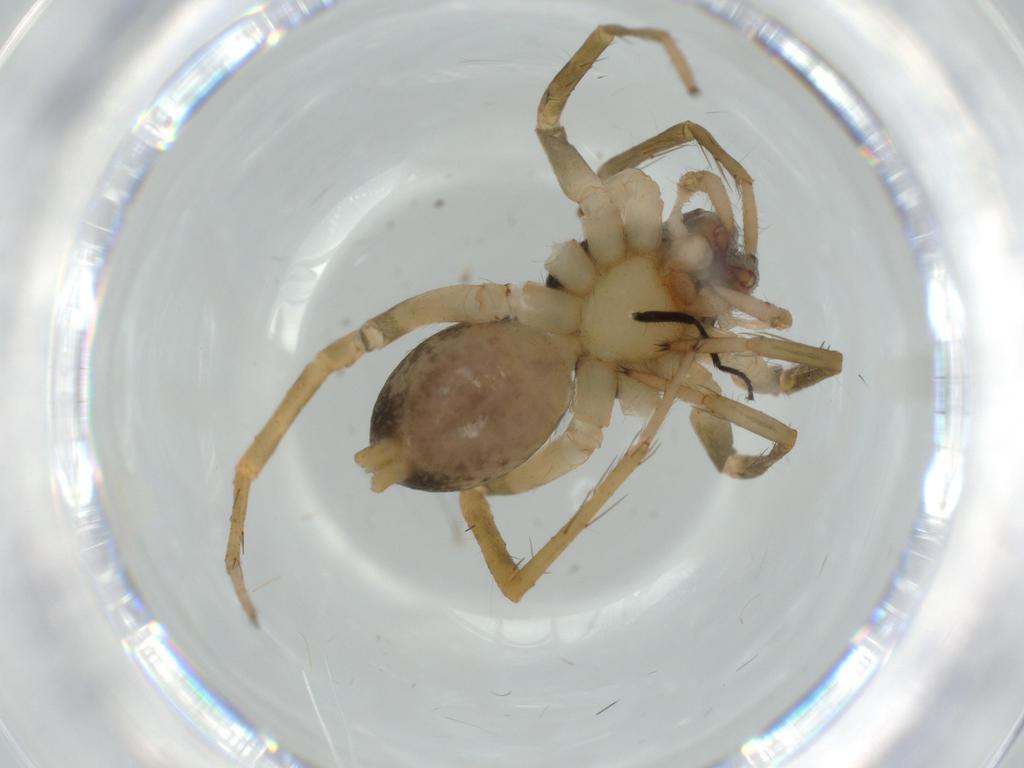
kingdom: Animalia
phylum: Arthropoda
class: Arachnida
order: Araneae
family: Lycosidae
